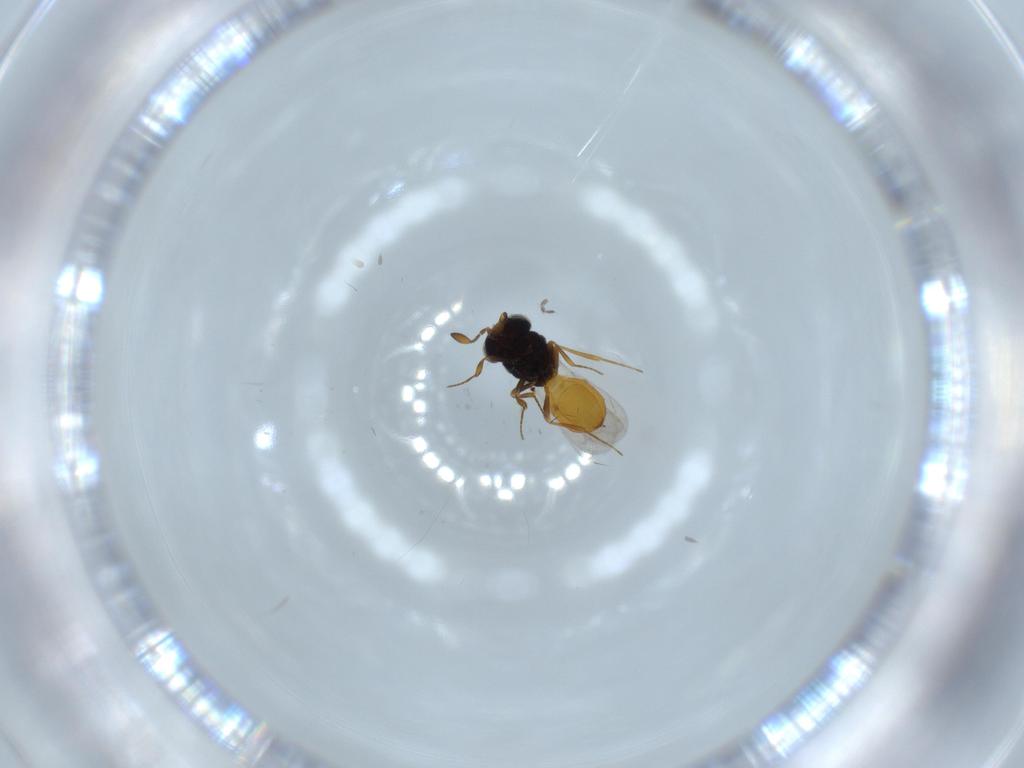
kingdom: Animalia
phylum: Arthropoda
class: Insecta
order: Hymenoptera
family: Scelionidae
